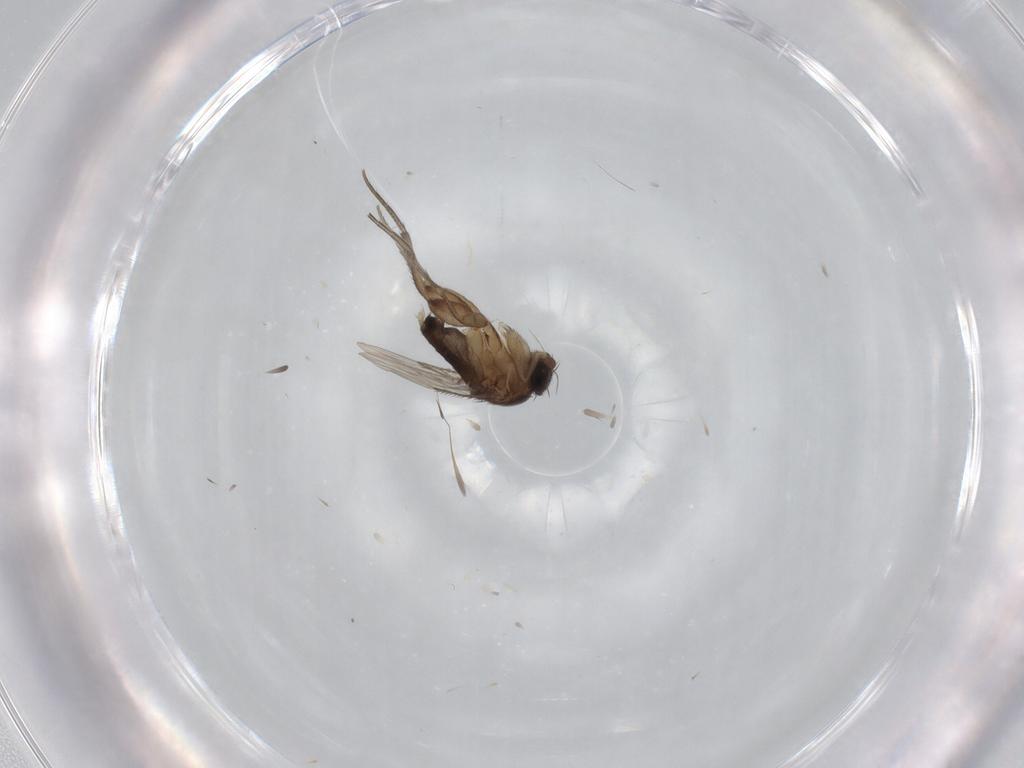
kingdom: Animalia
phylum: Arthropoda
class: Insecta
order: Diptera
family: Phoridae
